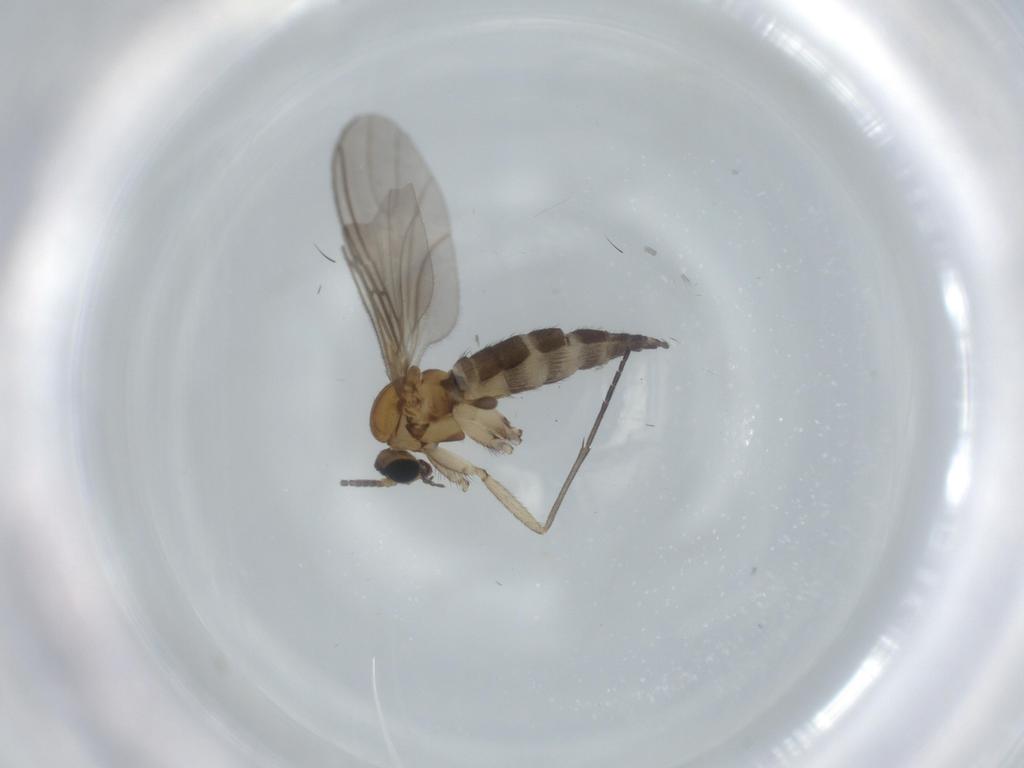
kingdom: Animalia
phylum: Arthropoda
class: Insecta
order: Diptera
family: Sciaridae
